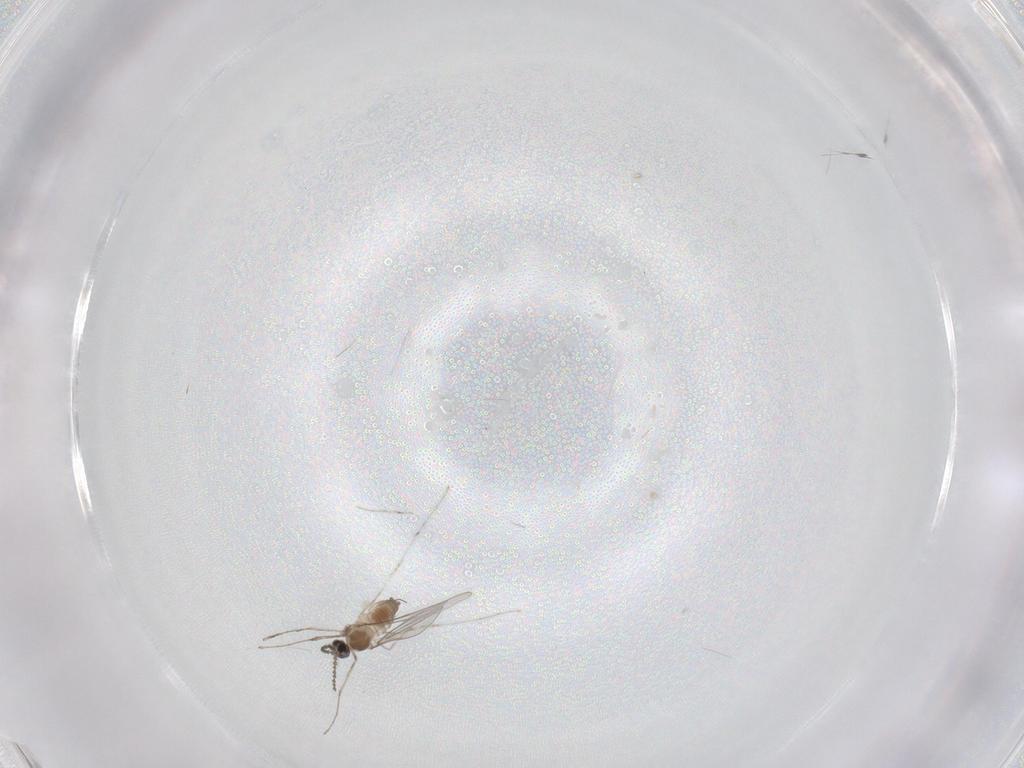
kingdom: Animalia
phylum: Arthropoda
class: Insecta
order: Diptera
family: Cecidomyiidae
